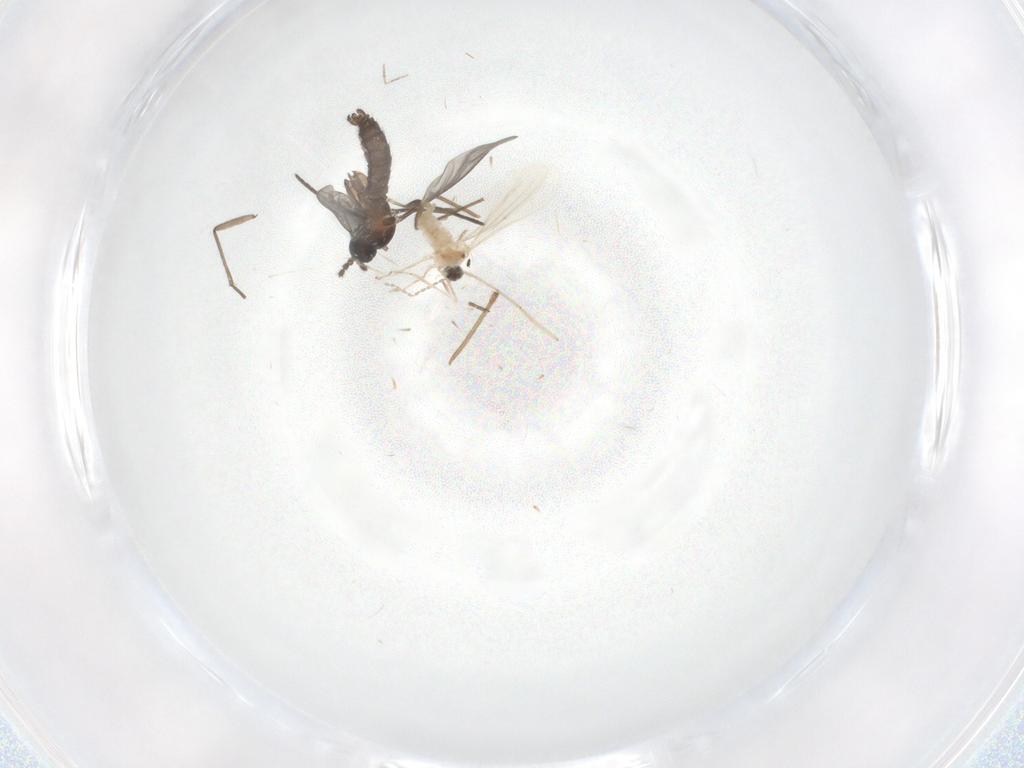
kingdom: Animalia
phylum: Arthropoda
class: Insecta
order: Diptera
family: Chironomidae
